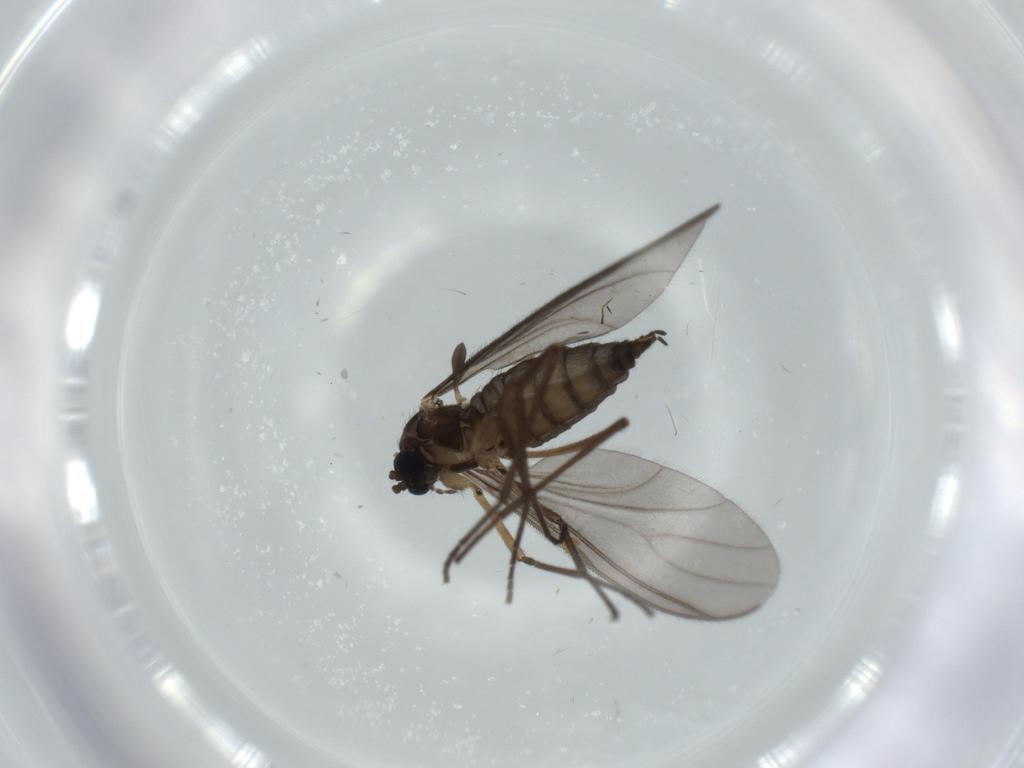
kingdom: Animalia
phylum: Arthropoda
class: Insecta
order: Diptera
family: Sciaridae
